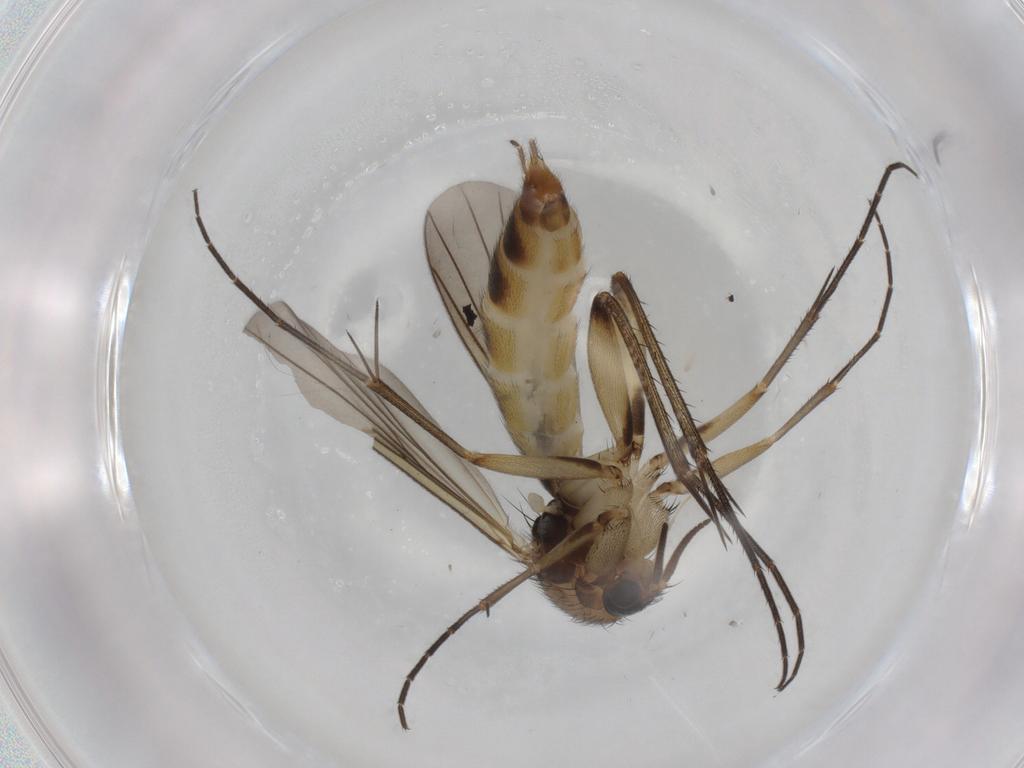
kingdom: Animalia
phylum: Arthropoda
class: Insecta
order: Diptera
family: Mycetophilidae
